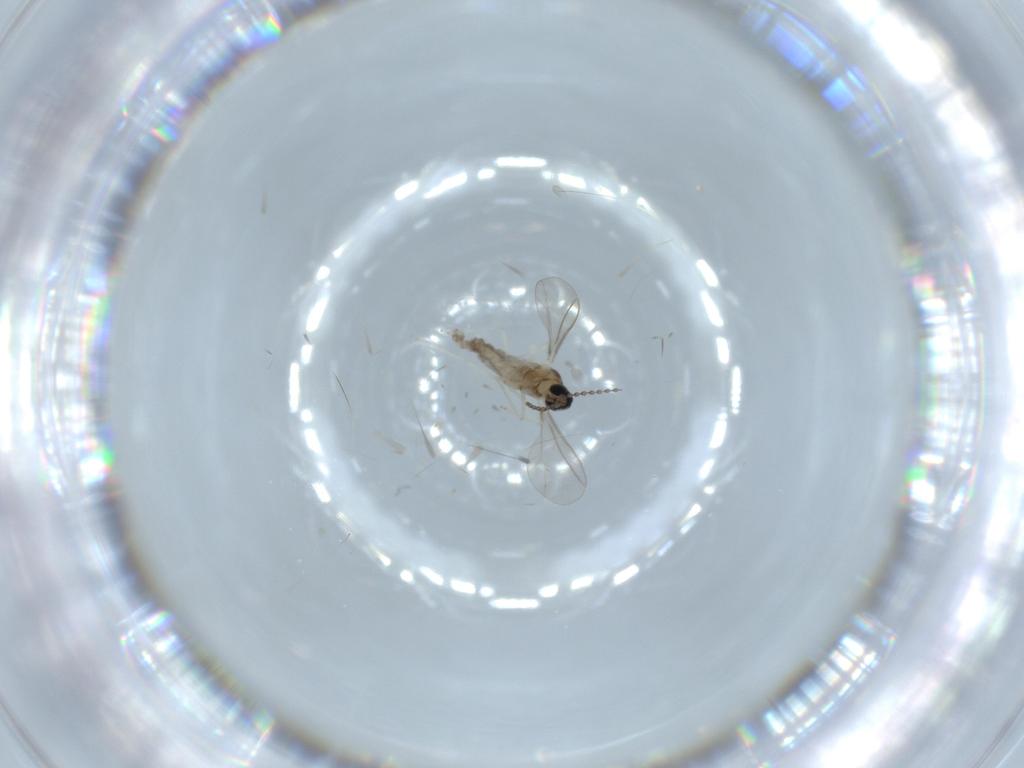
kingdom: Animalia
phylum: Arthropoda
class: Insecta
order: Diptera
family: Cecidomyiidae
